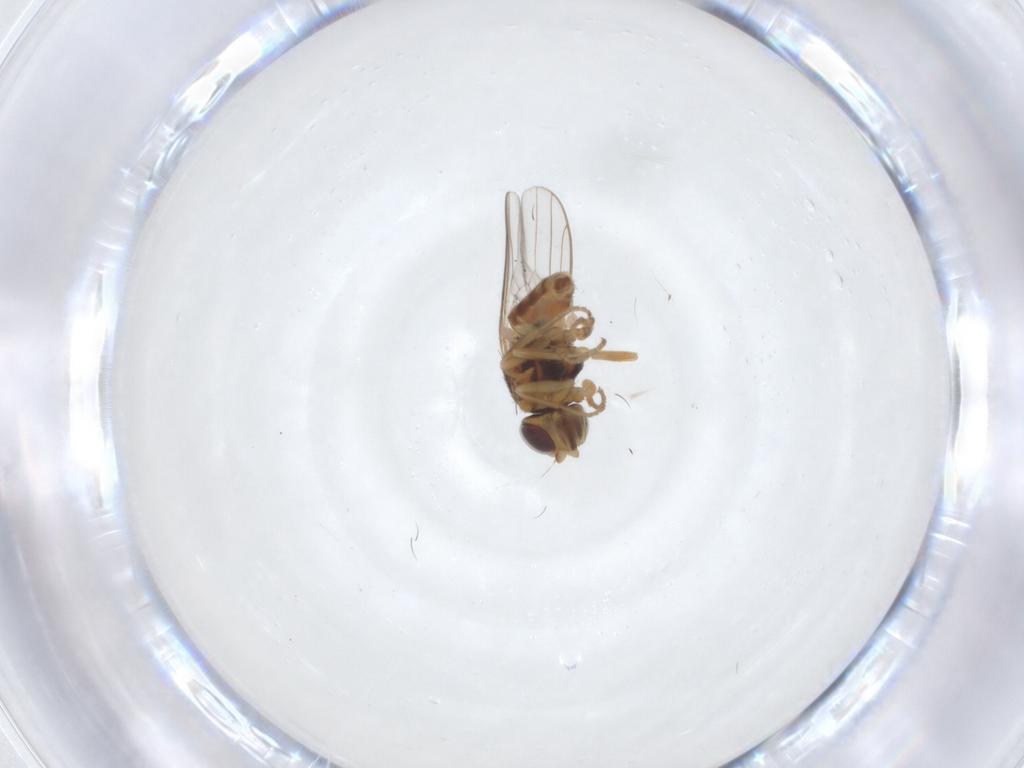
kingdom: Animalia
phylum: Arthropoda
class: Insecta
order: Diptera
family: Chloropidae
